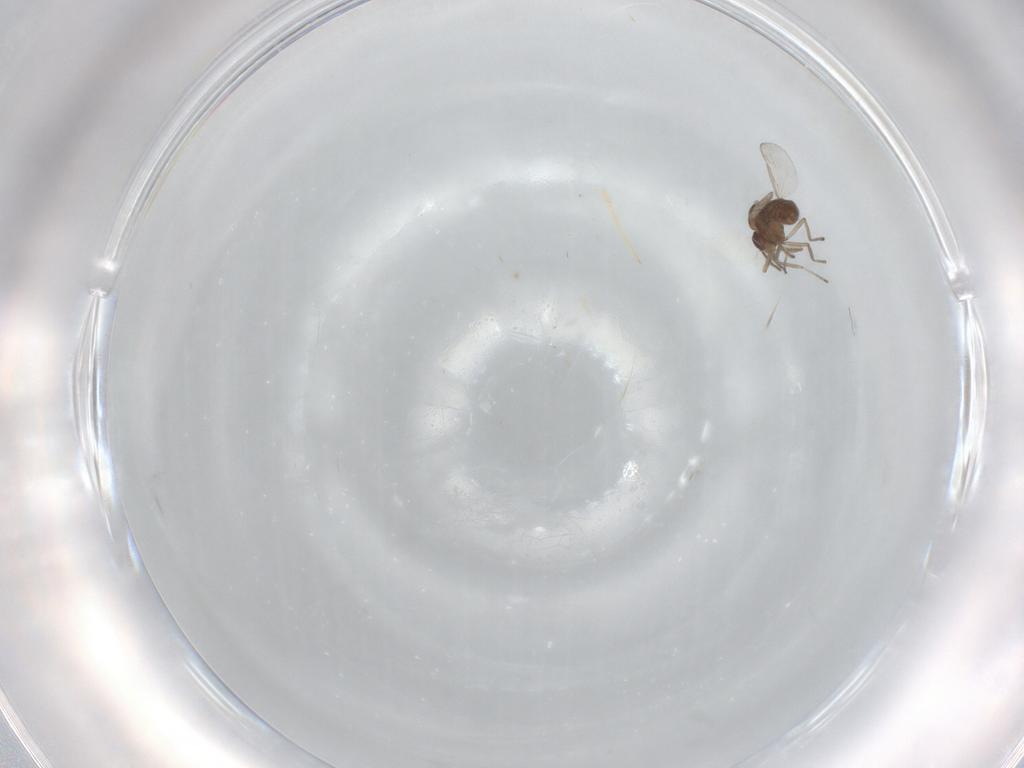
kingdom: Animalia
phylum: Arthropoda
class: Insecta
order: Diptera
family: Ceratopogonidae
